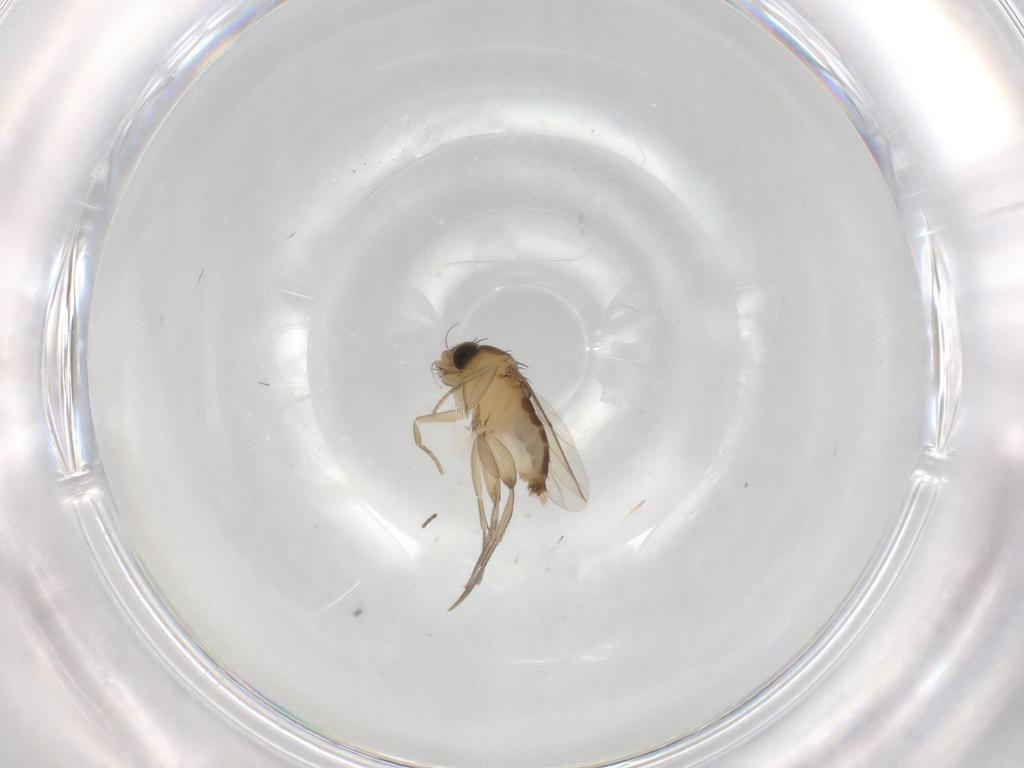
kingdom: Animalia
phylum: Arthropoda
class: Insecta
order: Diptera
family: Phoridae
